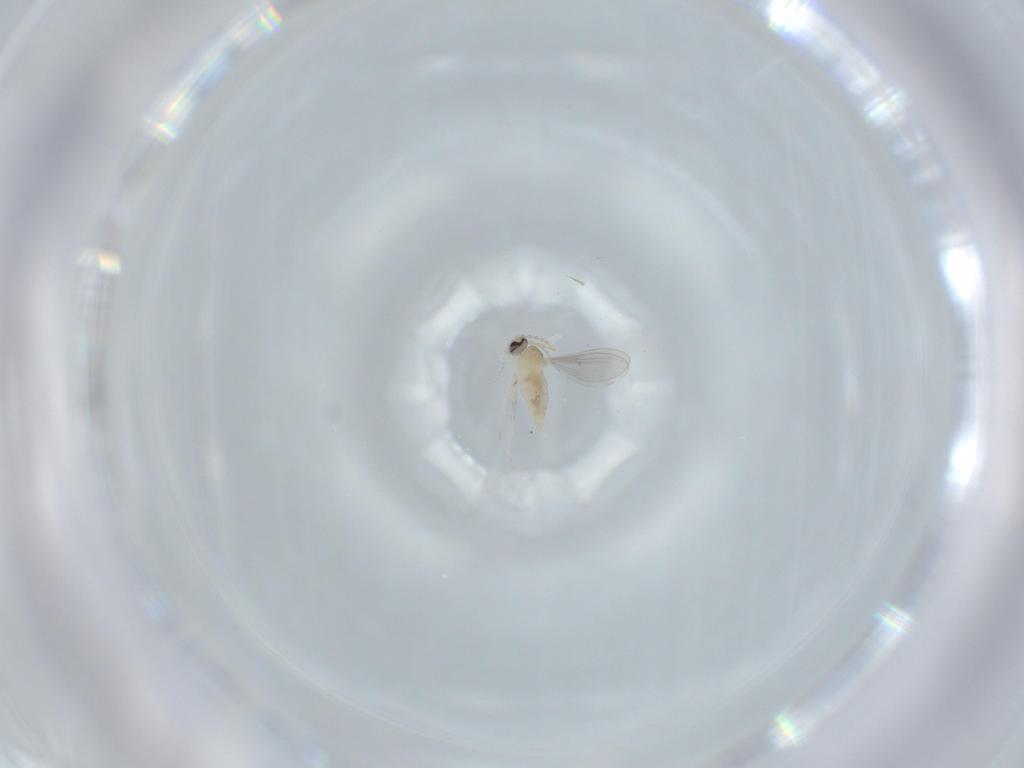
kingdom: Animalia
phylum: Arthropoda
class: Insecta
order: Diptera
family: Cecidomyiidae
